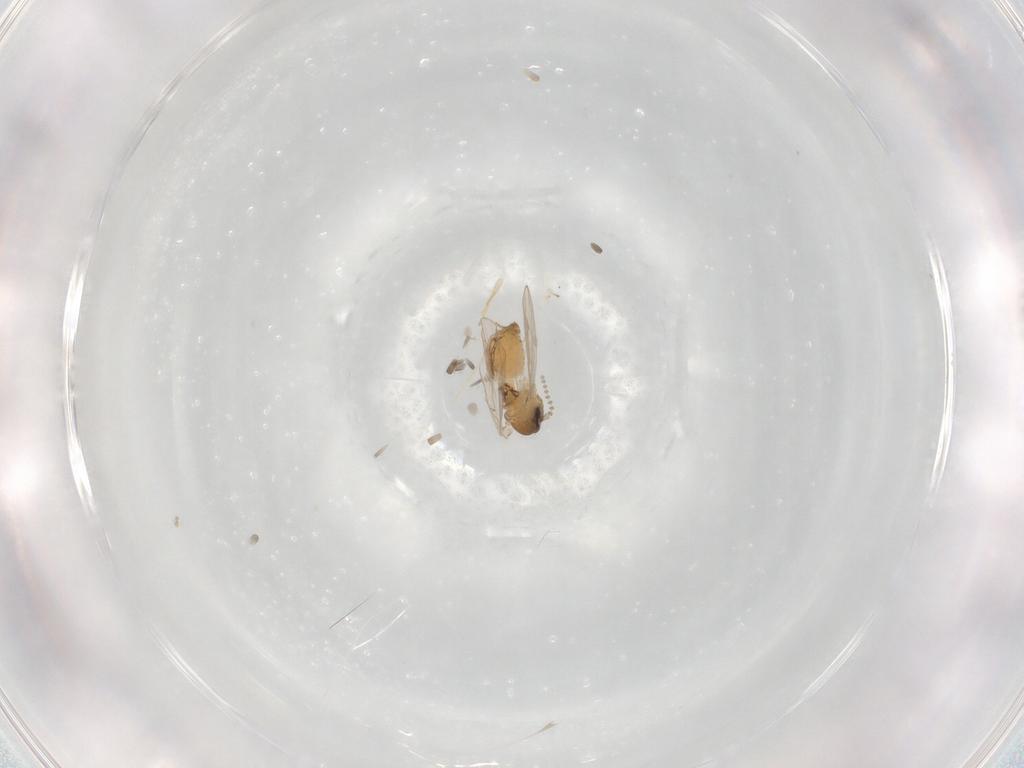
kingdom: Animalia
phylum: Arthropoda
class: Insecta
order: Diptera
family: Psychodidae
